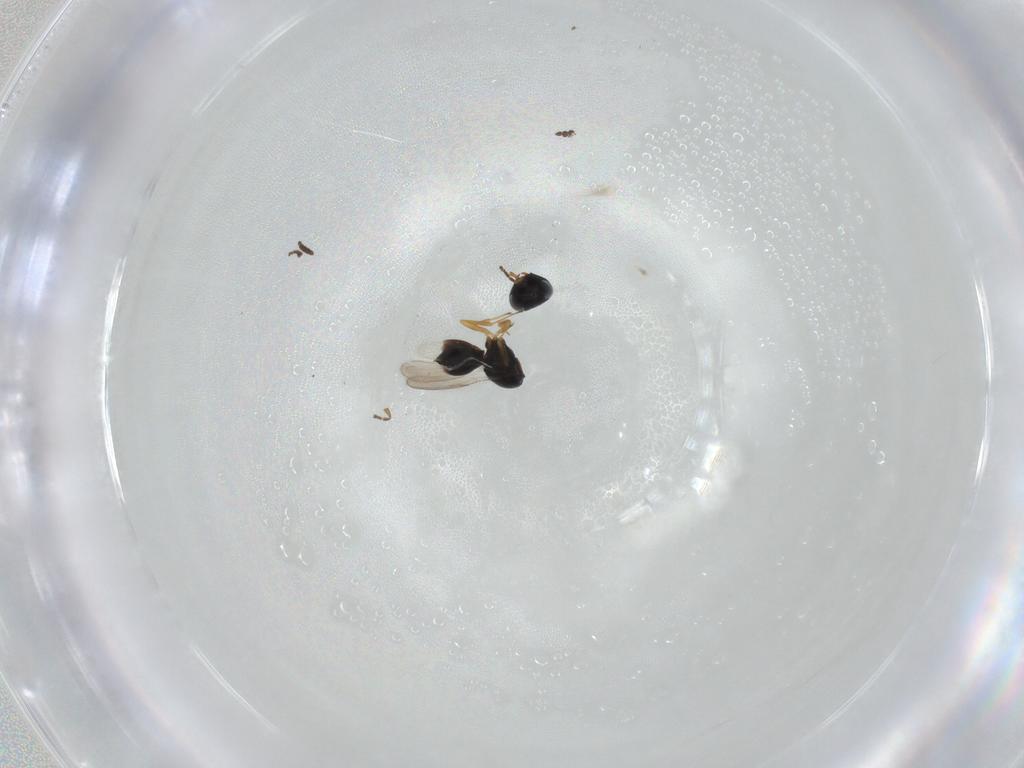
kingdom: Animalia
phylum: Arthropoda
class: Insecta
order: Hymenoptera
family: Scelionidae
